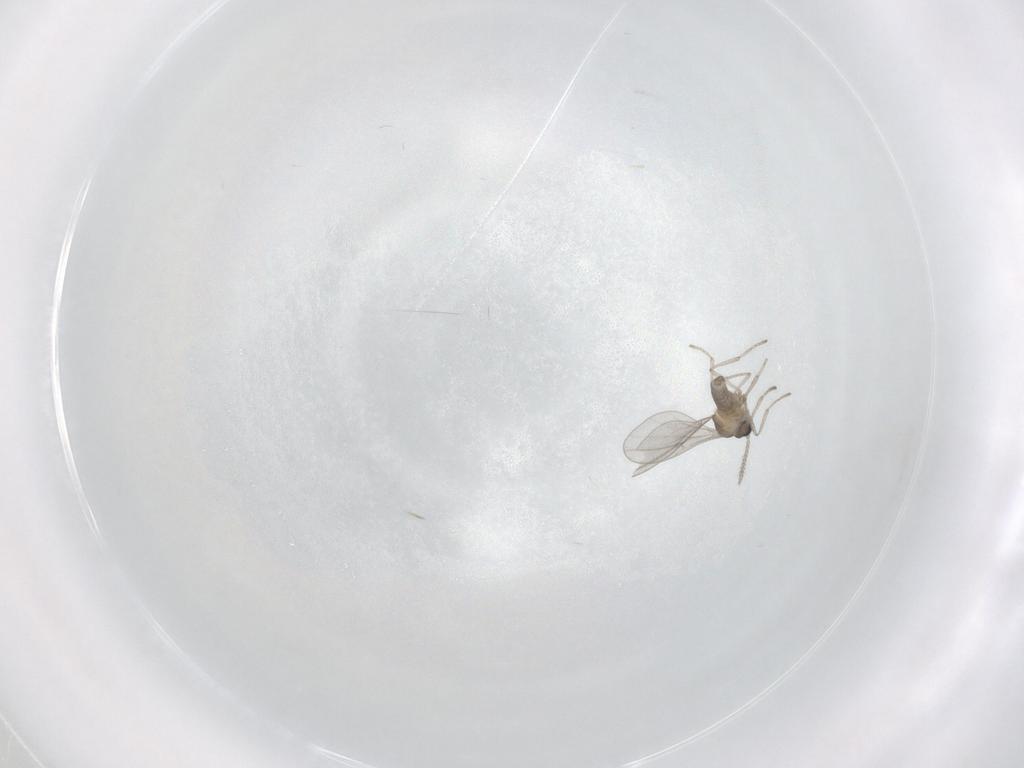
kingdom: Animalia
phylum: Arthropoda
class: Insecta
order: Diptera
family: Cecidomyiidae
